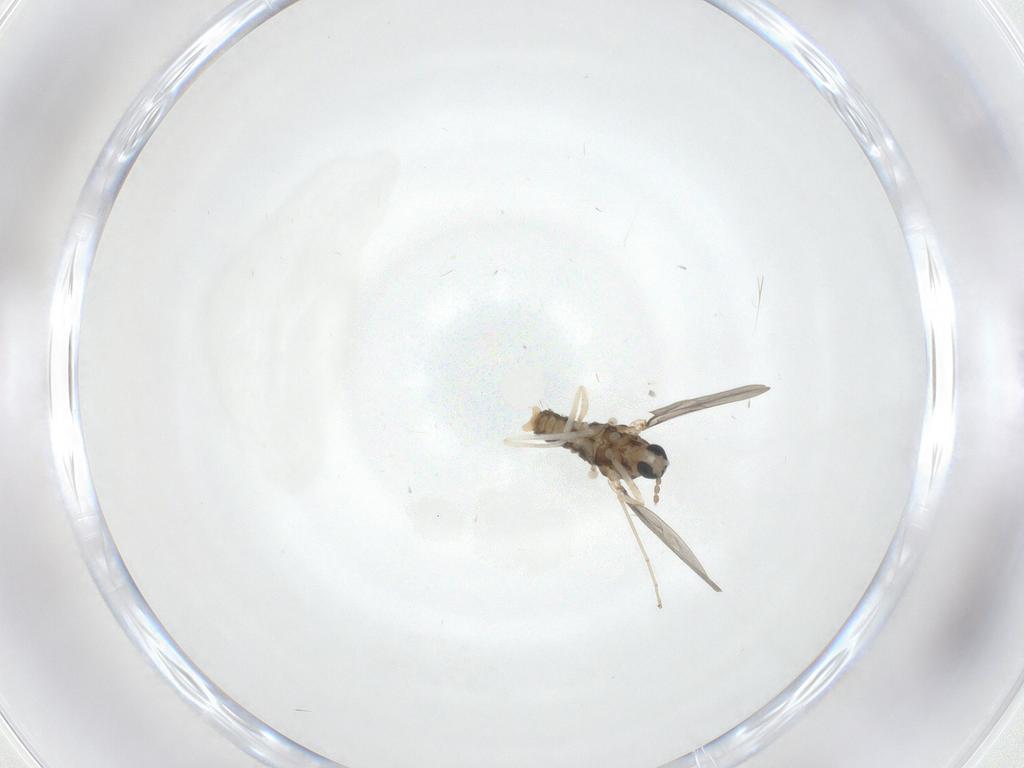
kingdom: Animalia
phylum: Arthropoda
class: Insecta
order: Diptera
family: Cecidomyiidae
